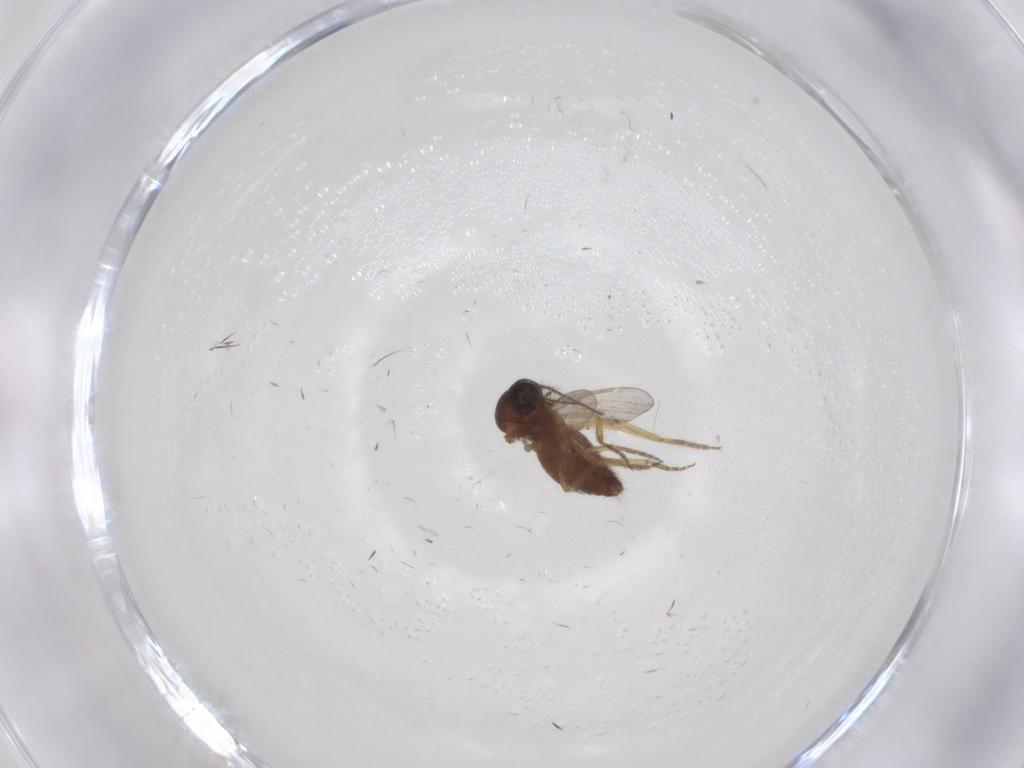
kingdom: Animalia
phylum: Arthropoda
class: Insecta
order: Diptera
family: Ceratopogonidae
